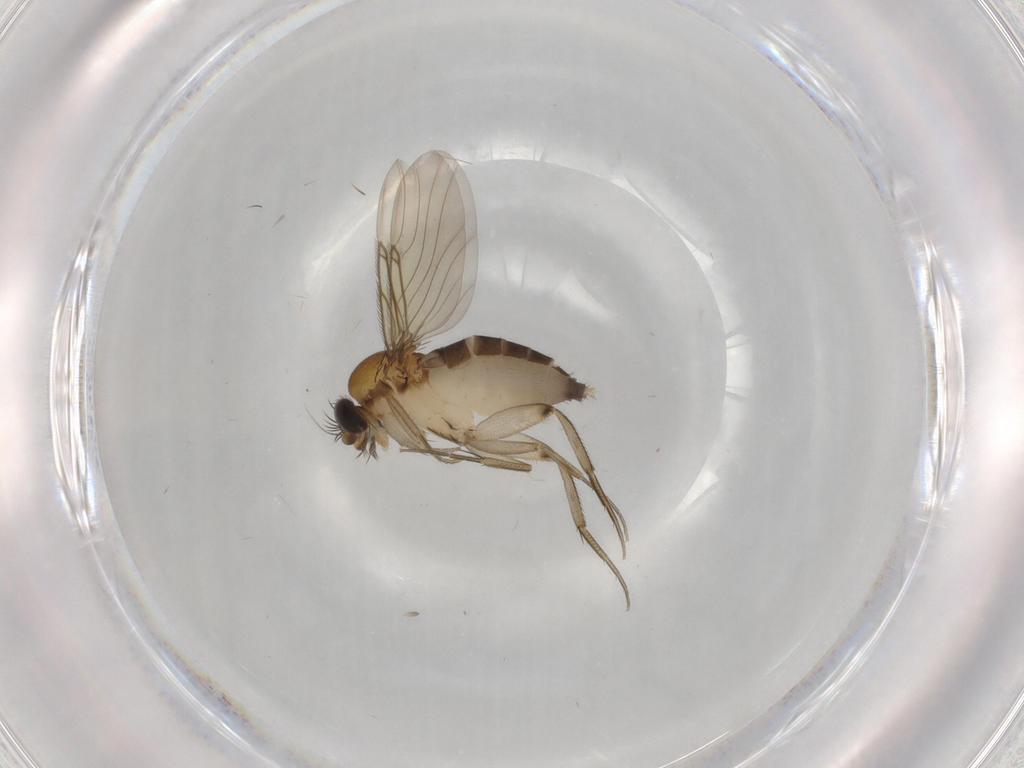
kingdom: Animalia
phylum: Arthropoda
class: Insecta
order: Diptera
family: Phoridae
